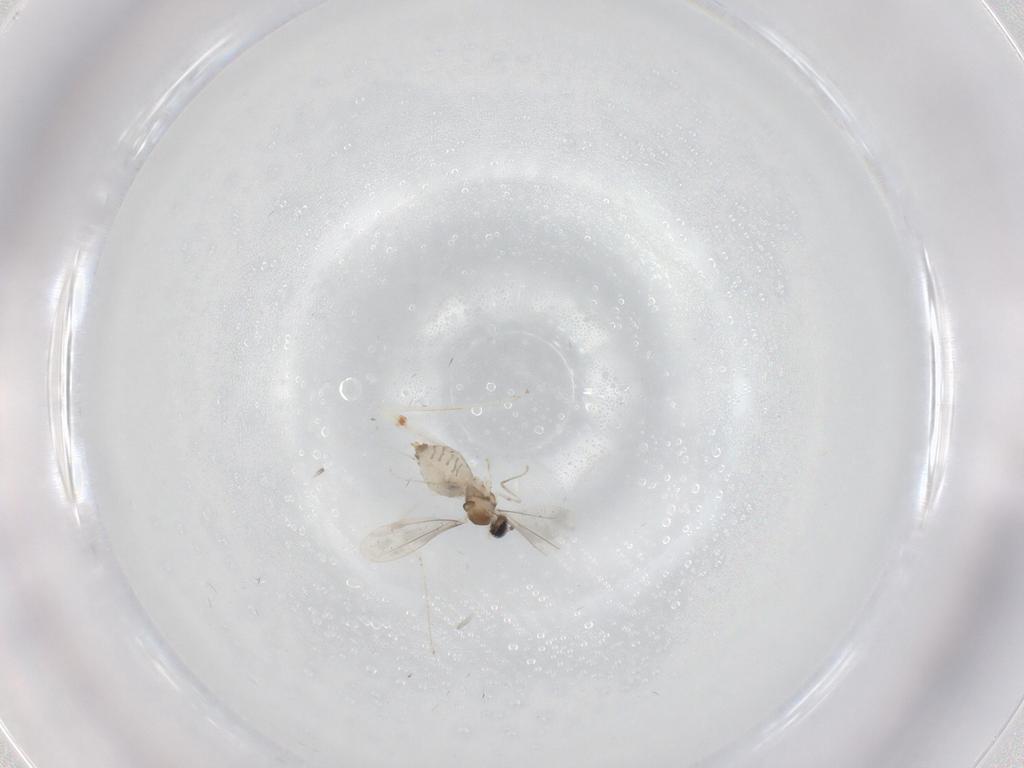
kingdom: Animalia
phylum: Arthropoda
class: Insecta
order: Diptera
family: Cecidomyiidae
